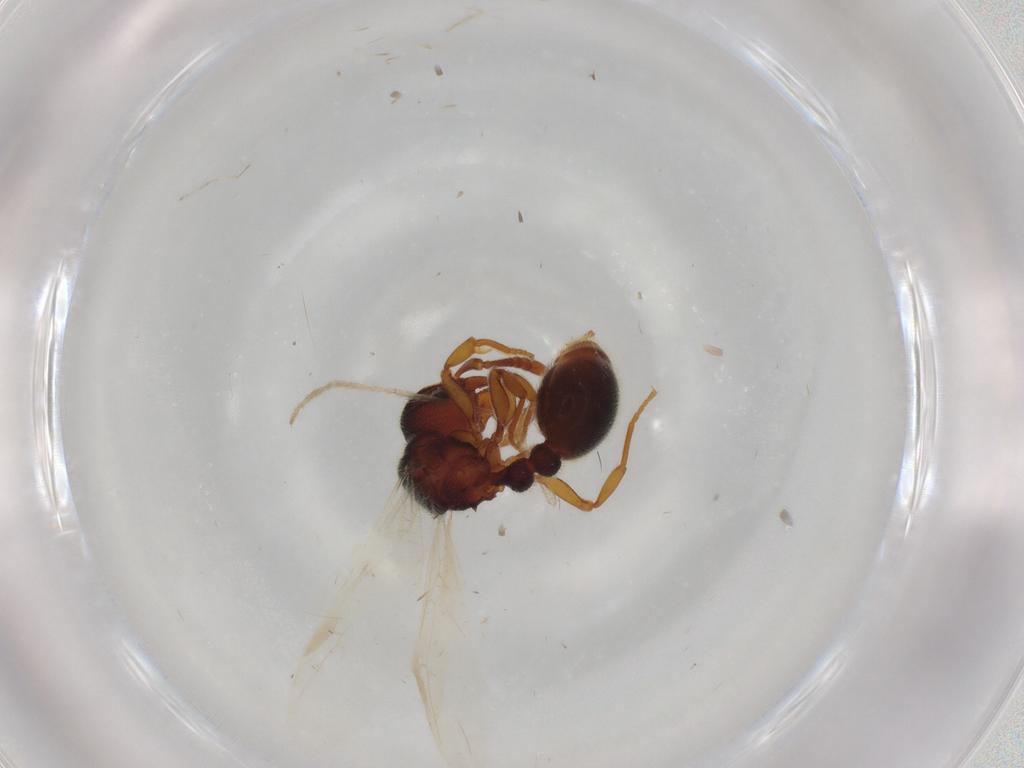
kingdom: Animalia
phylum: Arthropoda
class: Insecta
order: Hymenoptera
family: Formicidae
